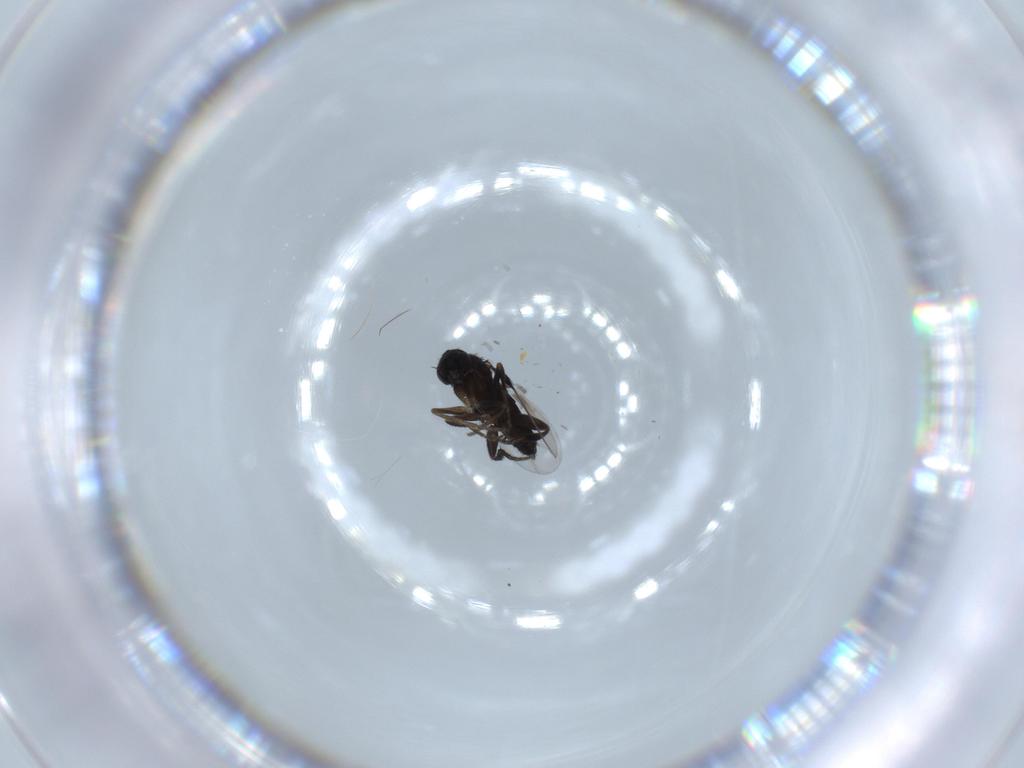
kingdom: Animalia
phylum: Arthropoda
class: Insecta
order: Diptera
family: Phoridae
